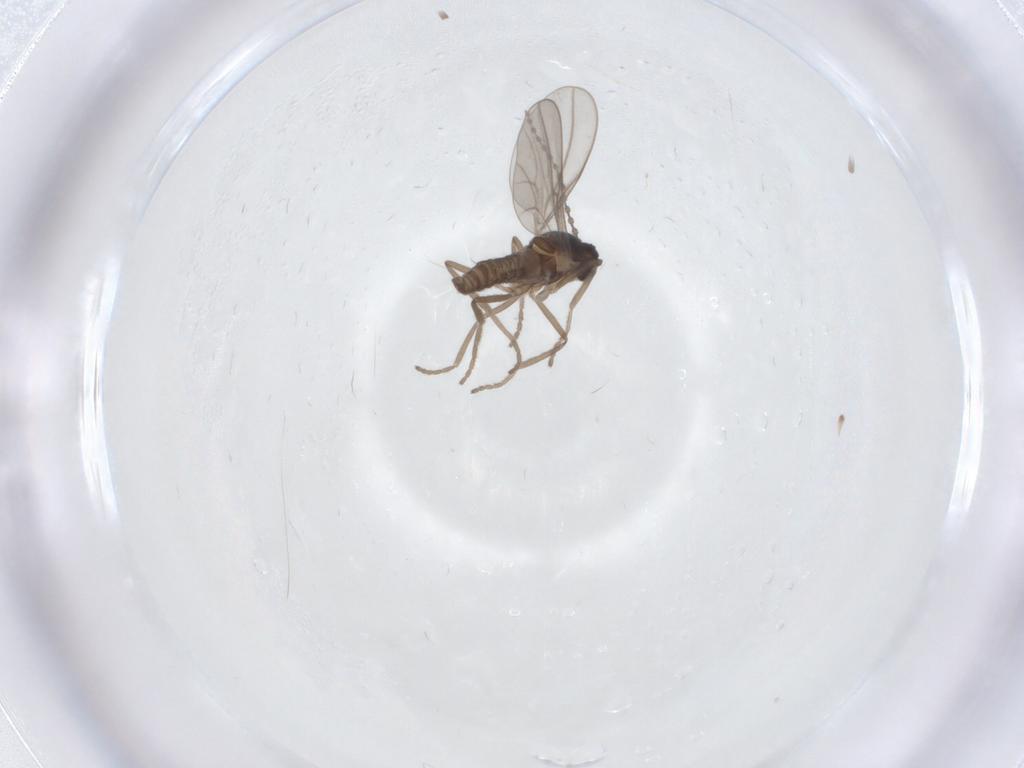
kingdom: Animalia
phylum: Arthropoda
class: Insecta
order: Diptera
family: Cecidomyiidae
